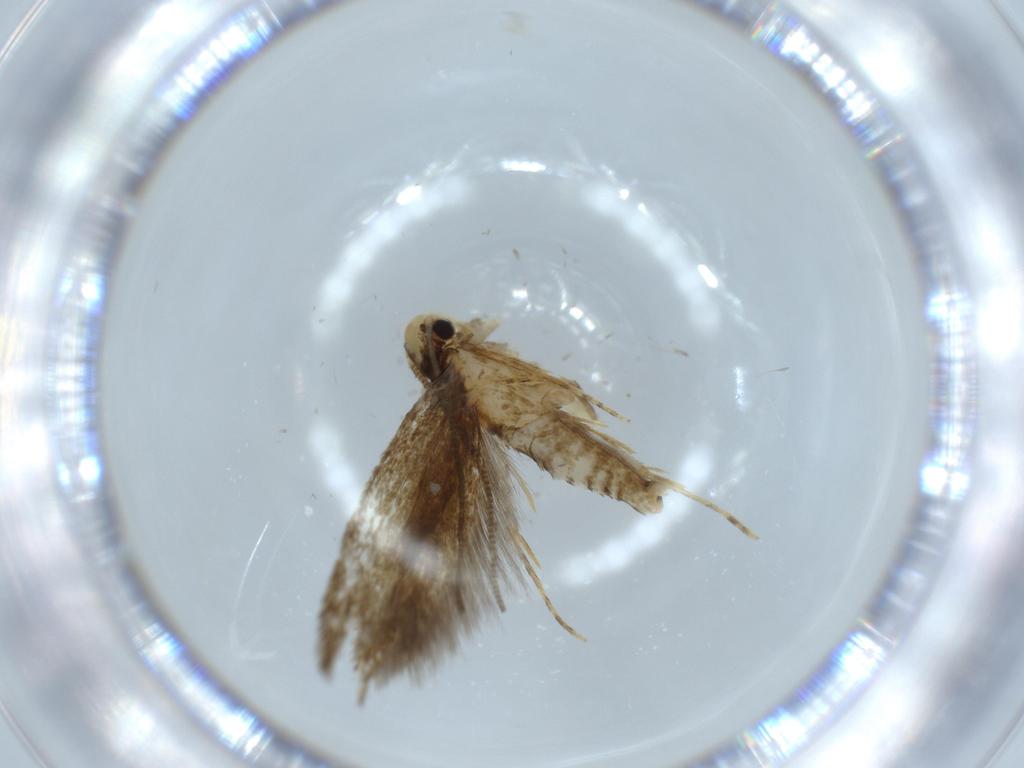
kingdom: Animalia
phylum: Arthropoda
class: Insecta
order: Lepidoptera
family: Tineidae
